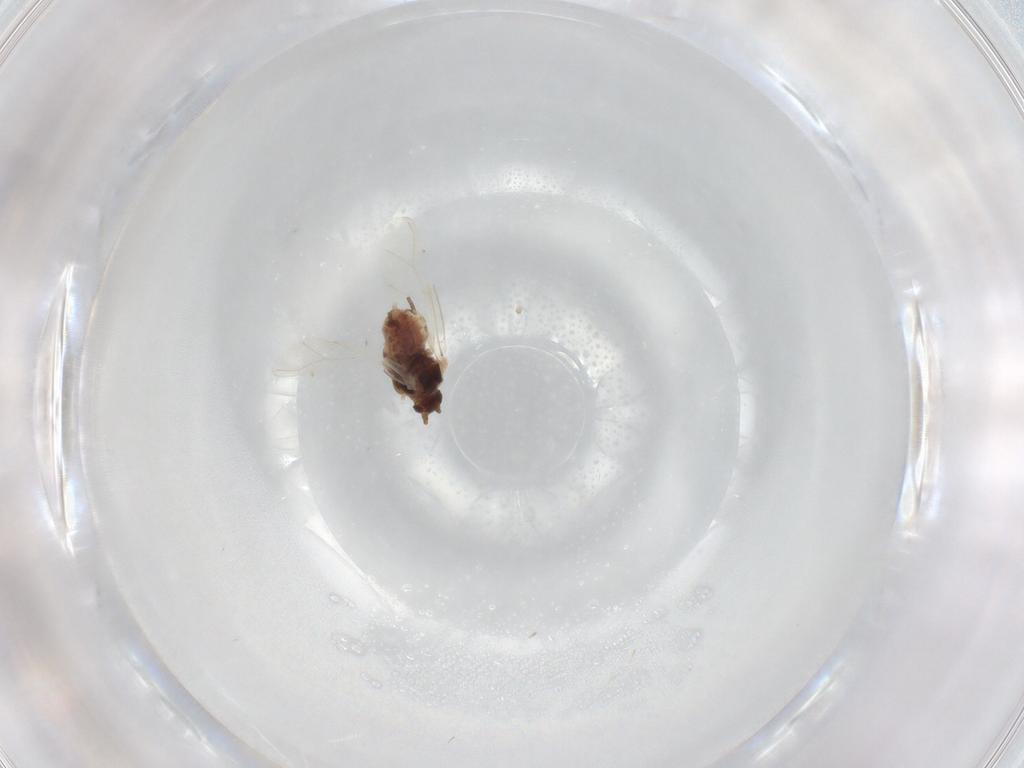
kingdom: Animalia
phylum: Arthropoda
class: Insecta
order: Hemiptera
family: Aphididae
